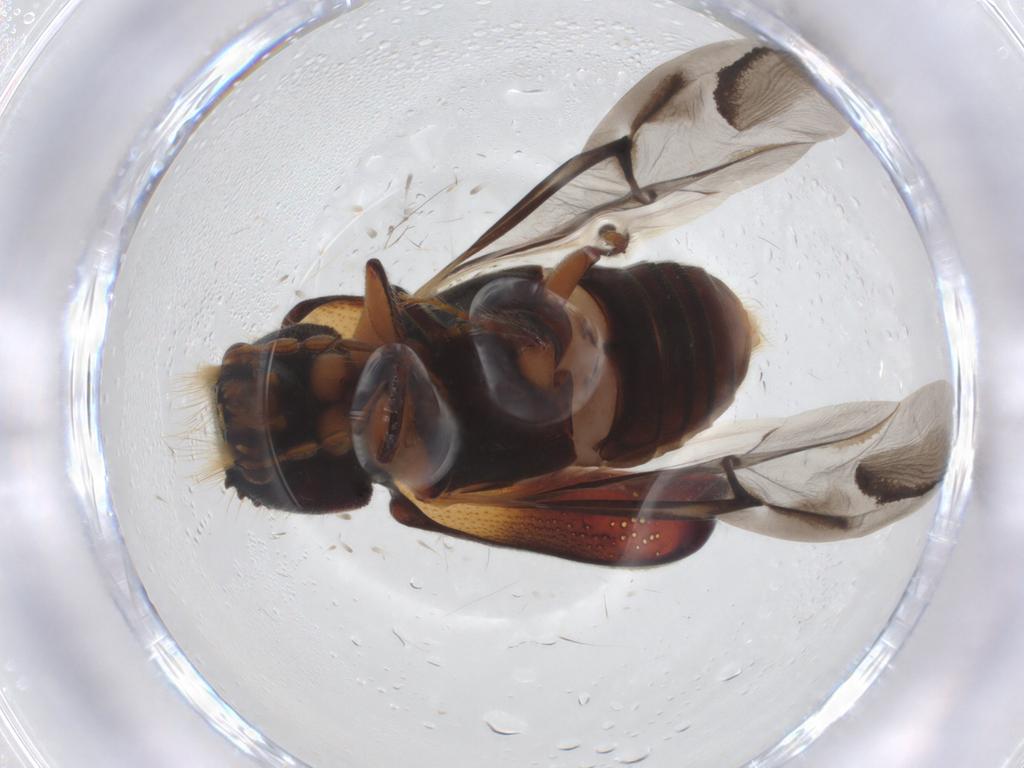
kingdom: Animalia
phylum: Arthropoda
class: Insecta
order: Coleoptera
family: Bostrichidae
